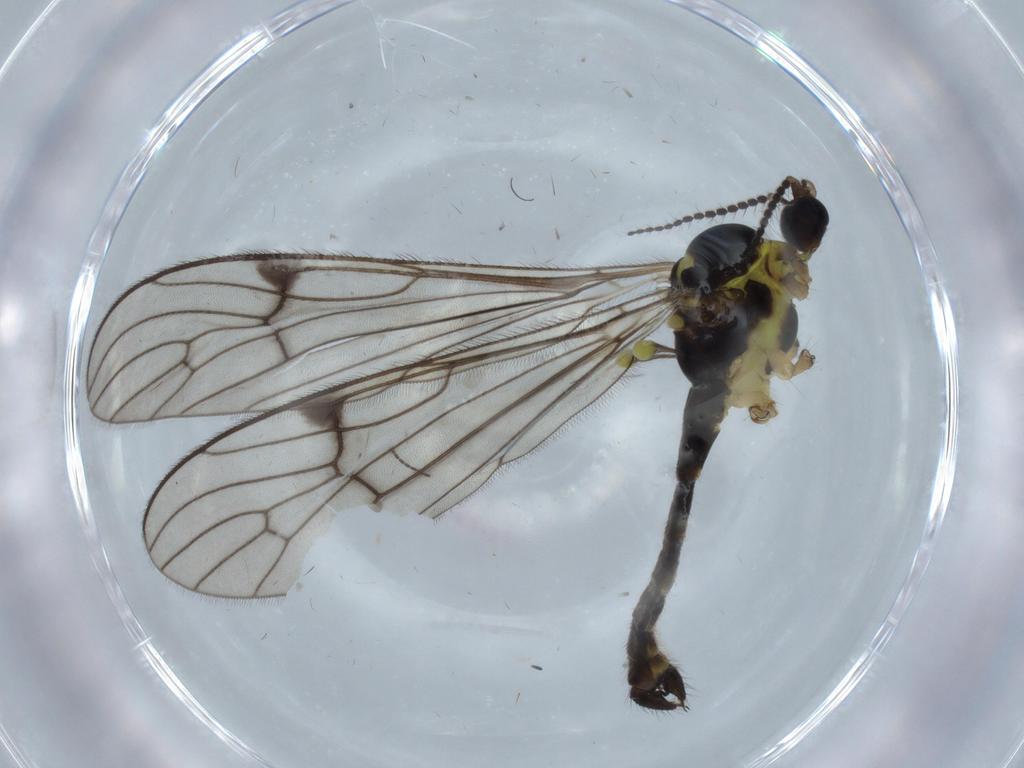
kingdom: Animalia
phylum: Arthropoda
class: Insecta
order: Diptera
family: Limoniidae
